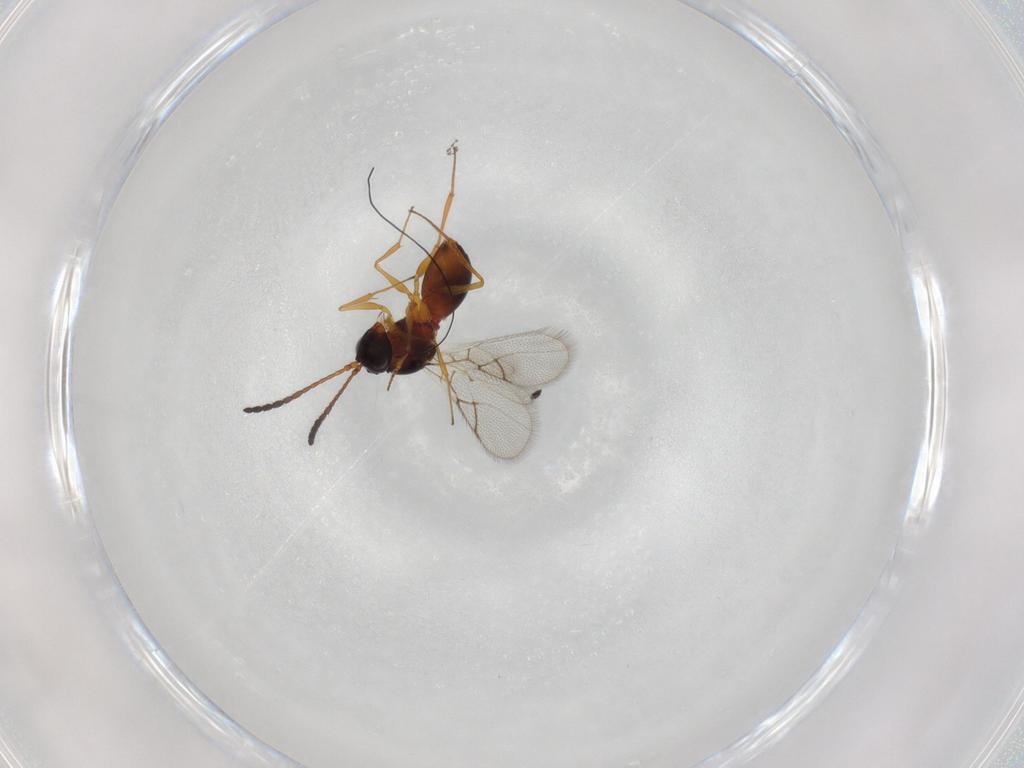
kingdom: Animalia
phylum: Arthropoda
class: Insecta
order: Hymenoptera
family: Figitidae
